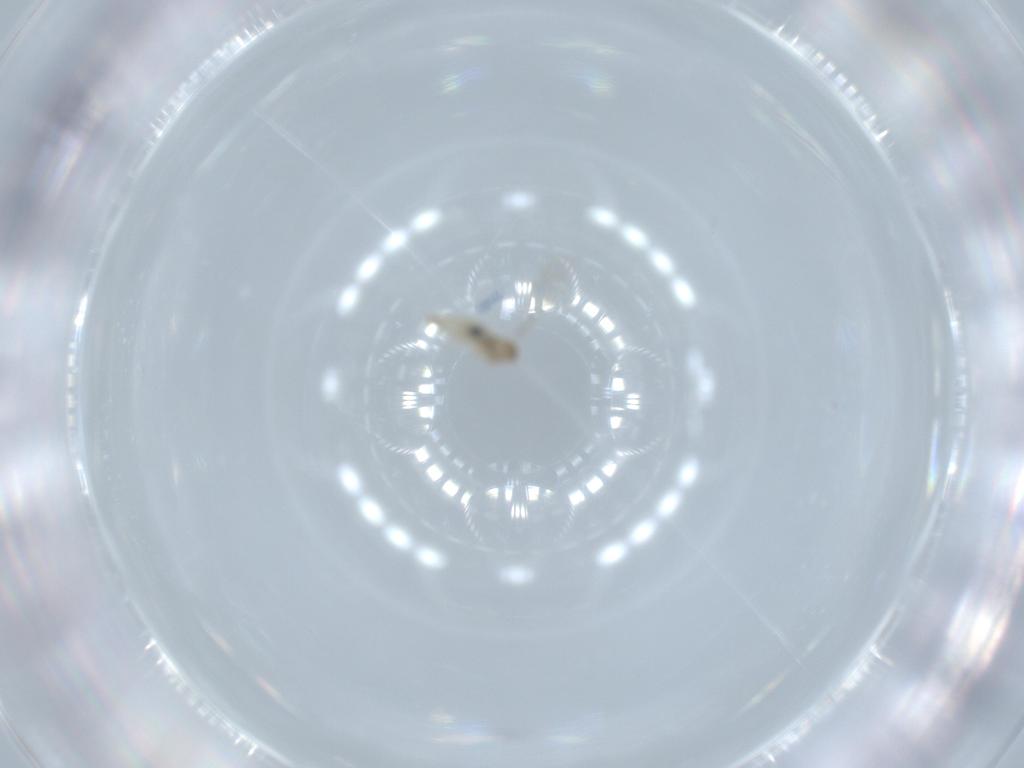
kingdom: Animalia
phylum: Arthropoda
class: Insecta
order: Diptera
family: Cecidomyiidae
